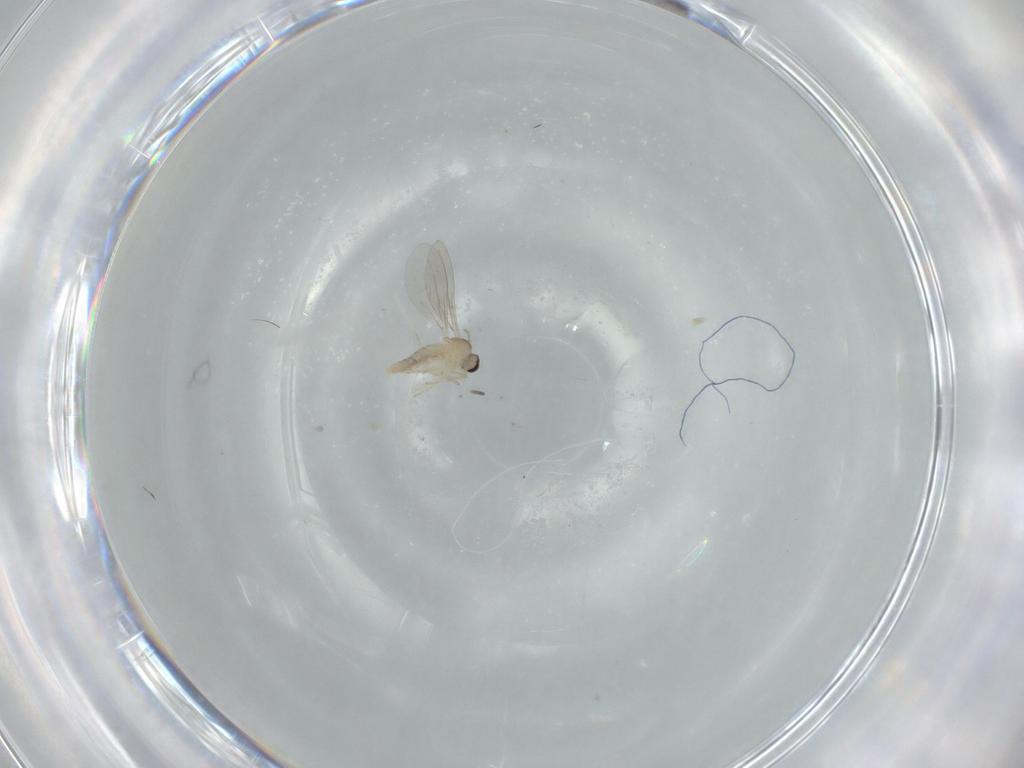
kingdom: Animalia
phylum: Arthropoda
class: Insecta
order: Diptera
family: Cecidomyiidae
